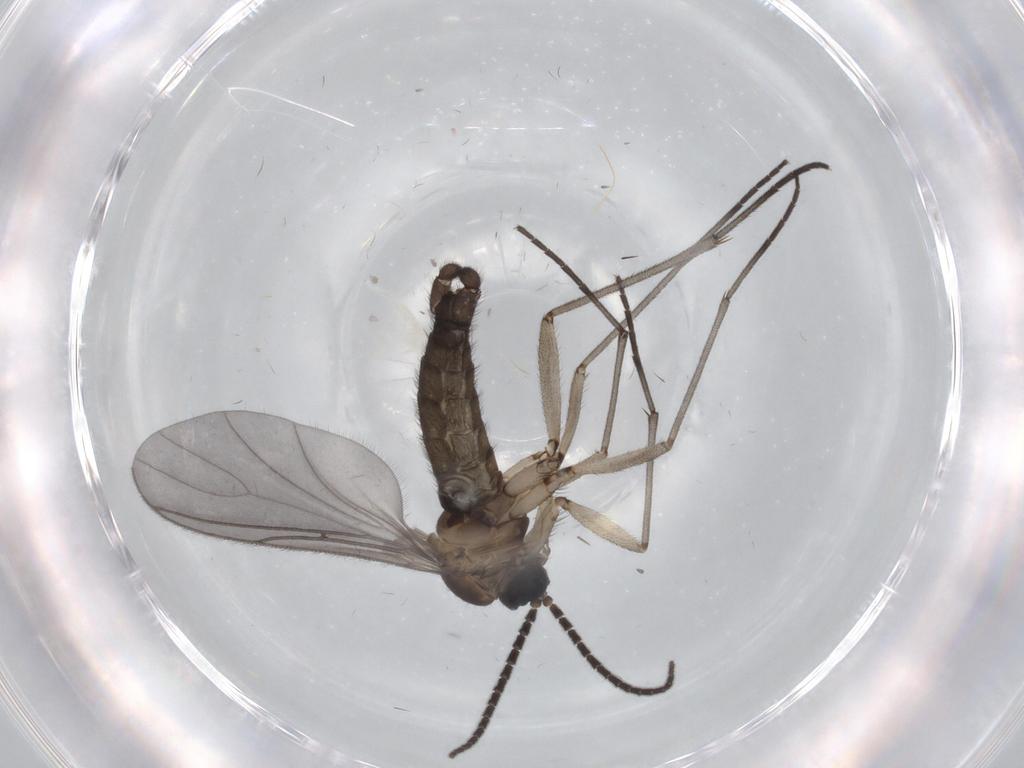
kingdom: Animalia
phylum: Arthropoda
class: Insecta
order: Diptera
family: Sciaridae
